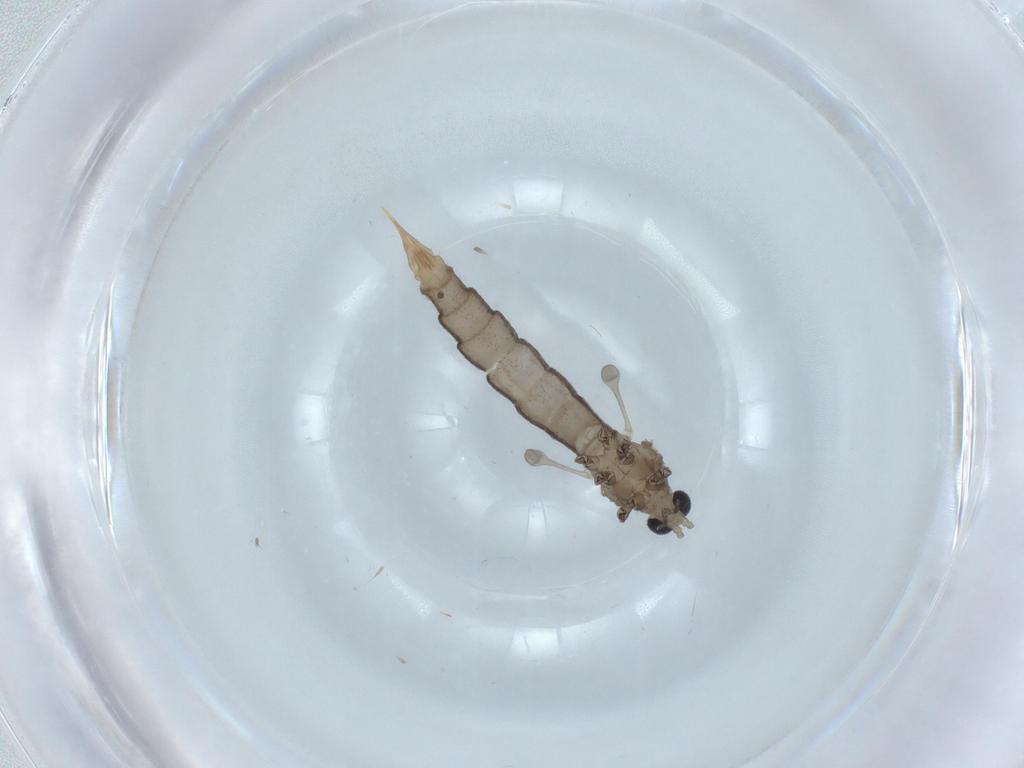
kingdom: Animalia
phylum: Arthropoda
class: Insecta
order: Diptera
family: Limoniidae
